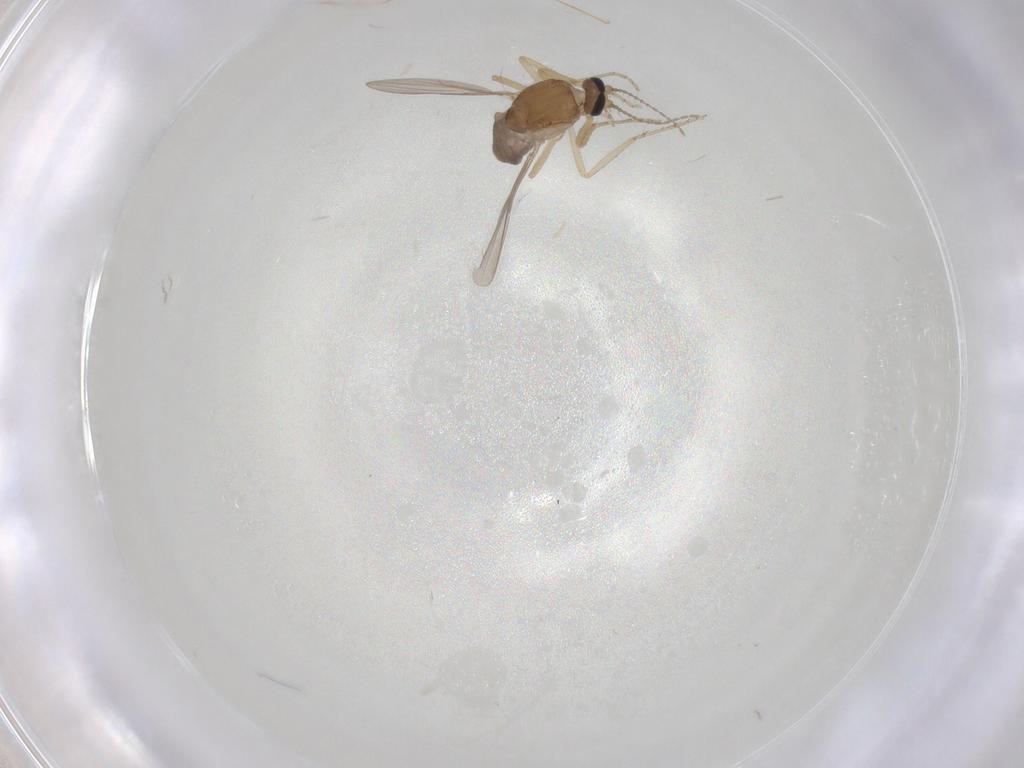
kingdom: Animalia
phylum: Arthropoda
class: Insecta
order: Diptera
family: Ceratopogonidae
